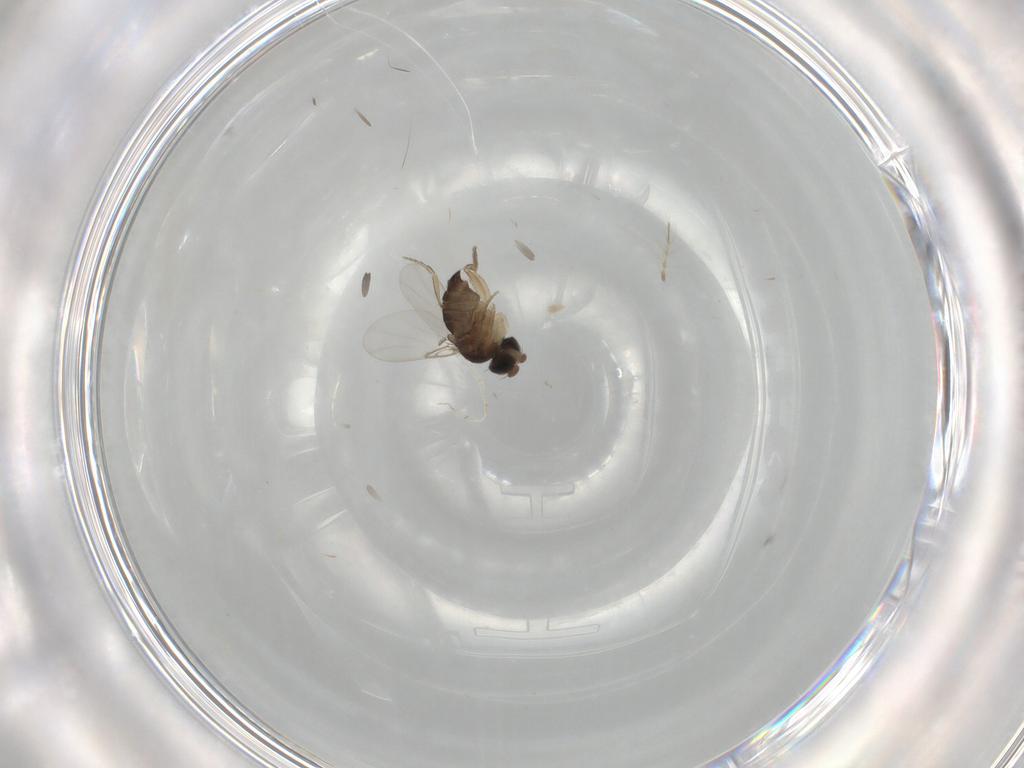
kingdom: Animalia
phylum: Arthropoda
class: Insecta
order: Diptera
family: Phoridae
